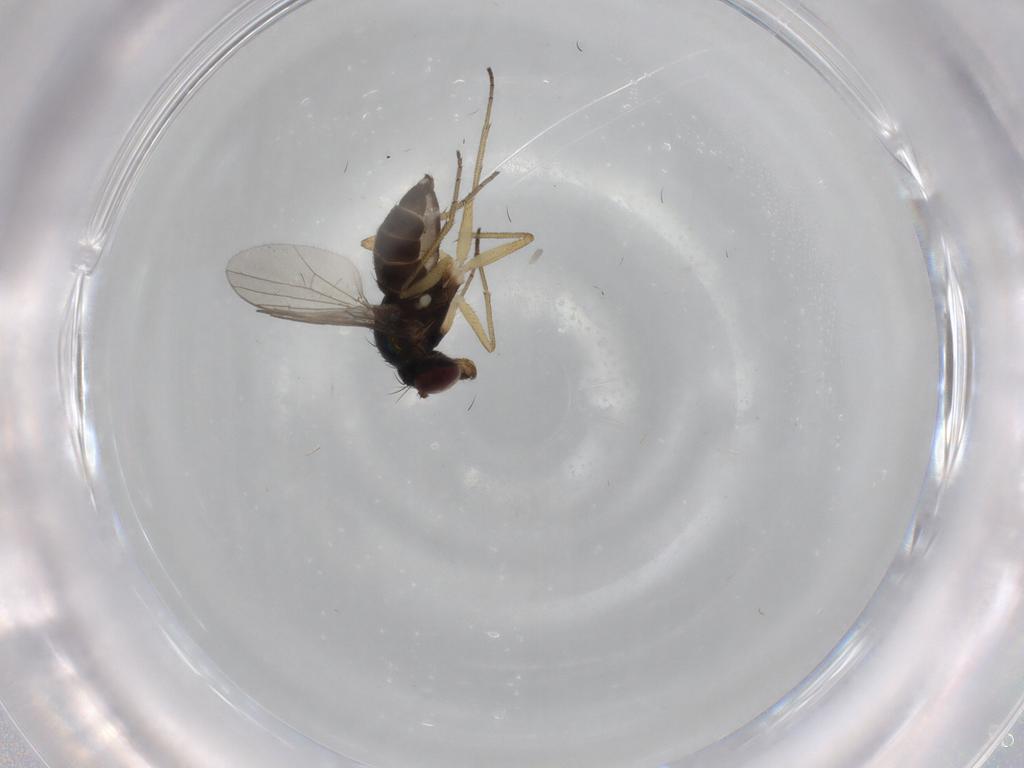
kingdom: Animalia
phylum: Arthropoda
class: Insecta
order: Diptera
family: Dolichopodidae
